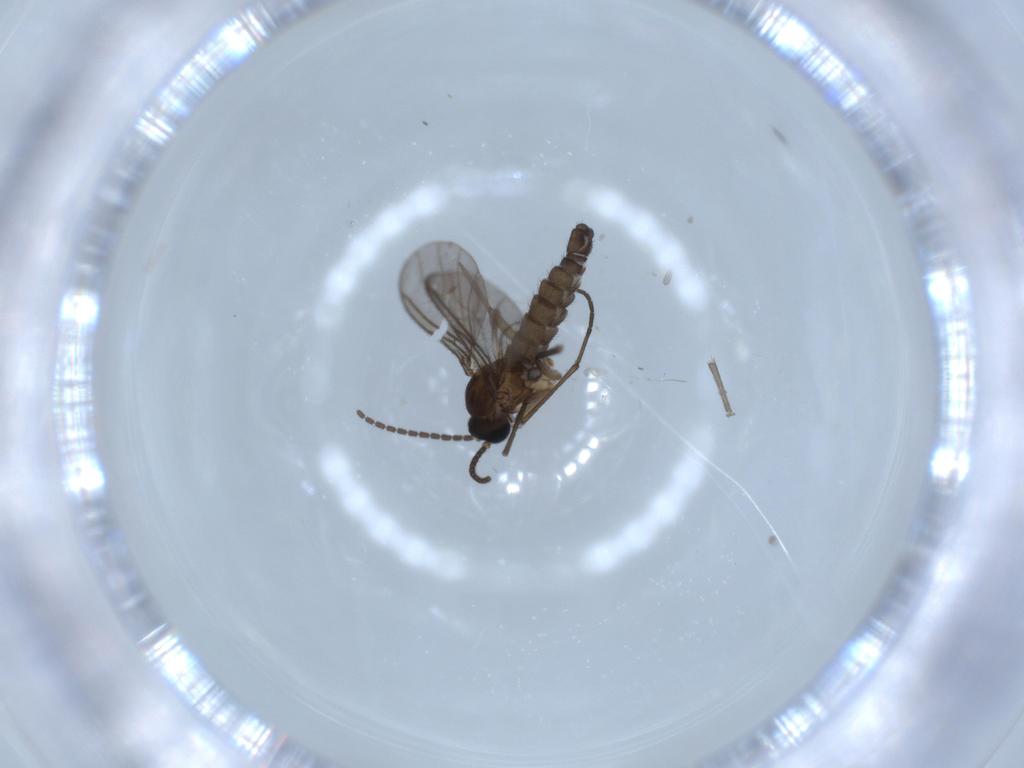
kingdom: Animalia
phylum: Arthropoda
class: Insecta
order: Diptera
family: Sciaridae
